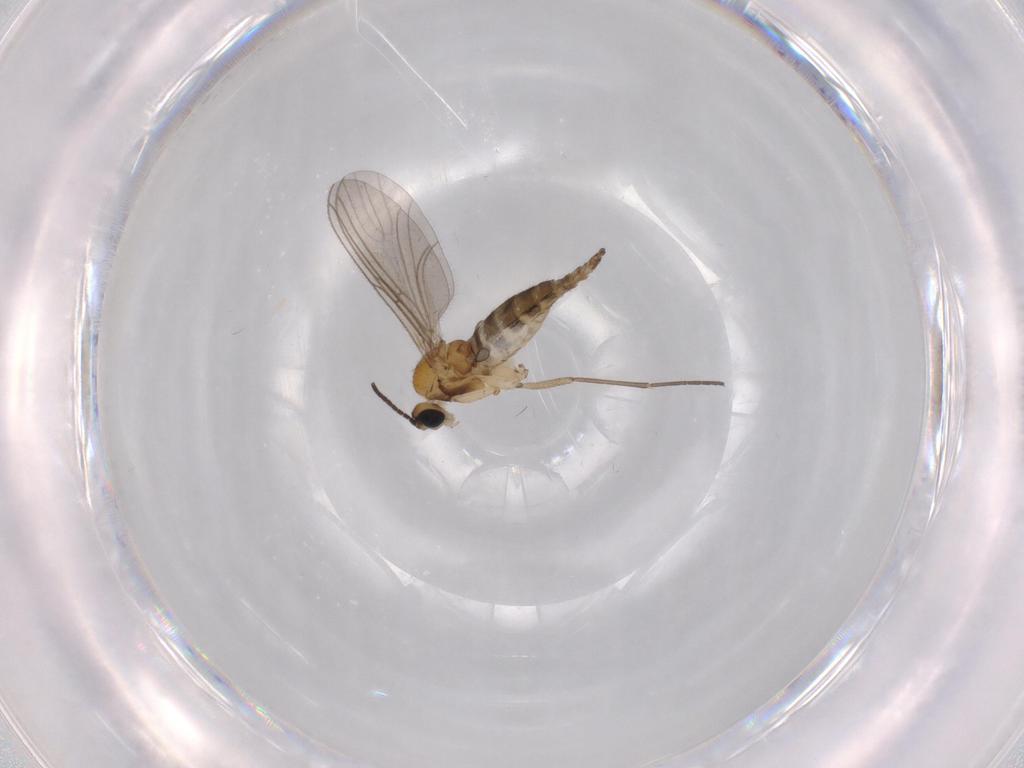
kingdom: Animalia
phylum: Arthropoda
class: Insecta
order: Diptera
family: Sciaridae
